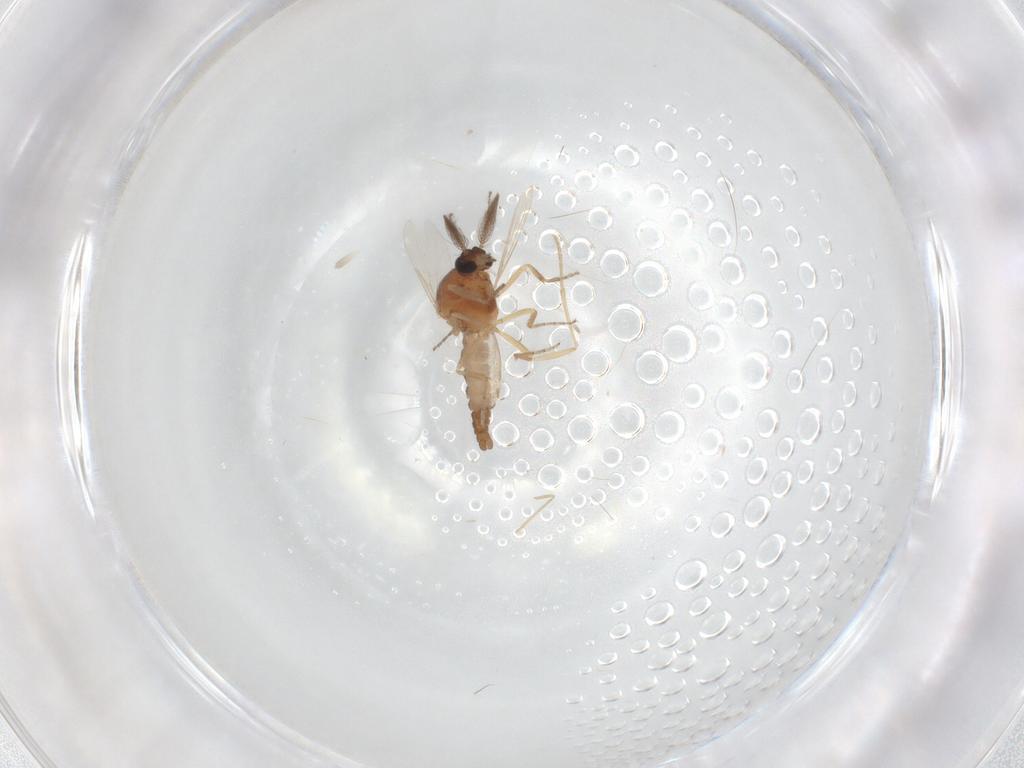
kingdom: Animalia
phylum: Arthropoda
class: Insecta
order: Diptera
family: Ceratopogonidae
